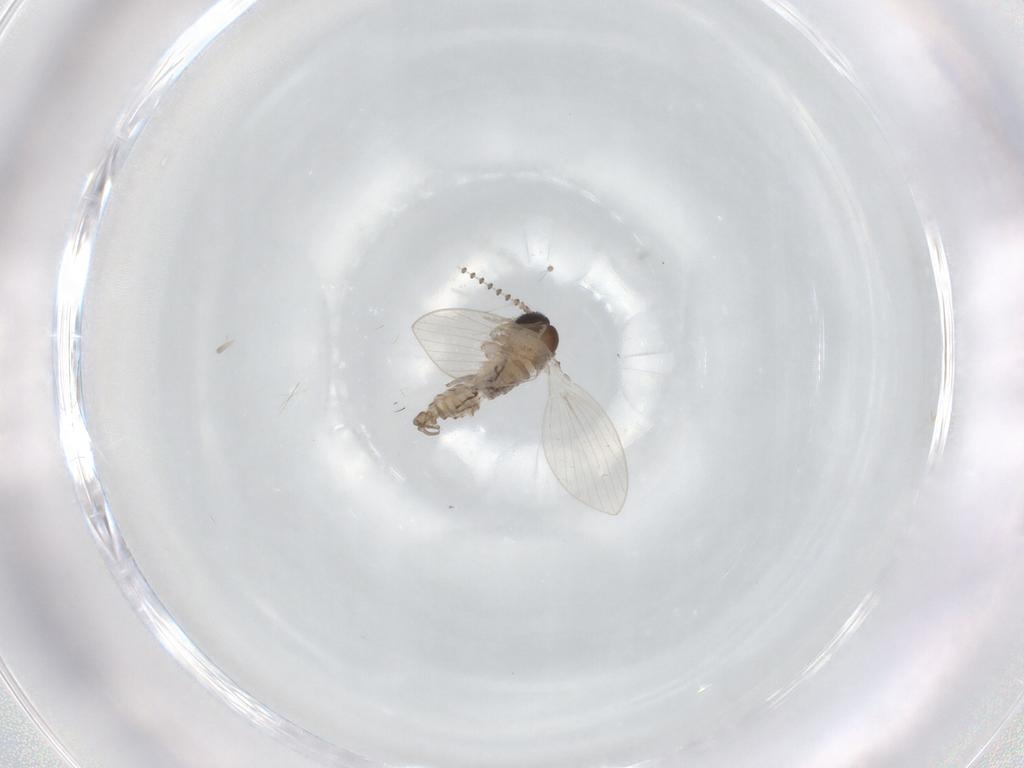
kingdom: Animalia
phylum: Arthropoda
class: Insecta
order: Diptera
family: Psychodidae
